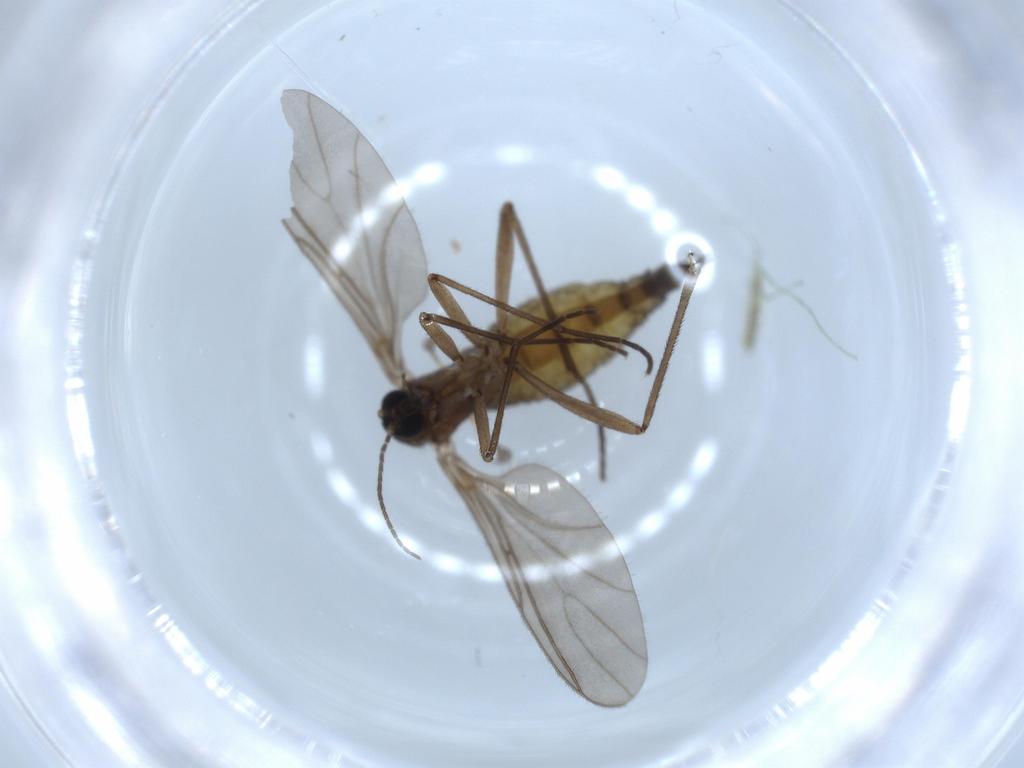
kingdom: Animalia
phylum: Arthropoda
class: Insecta
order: Diptera
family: Sciaridae
